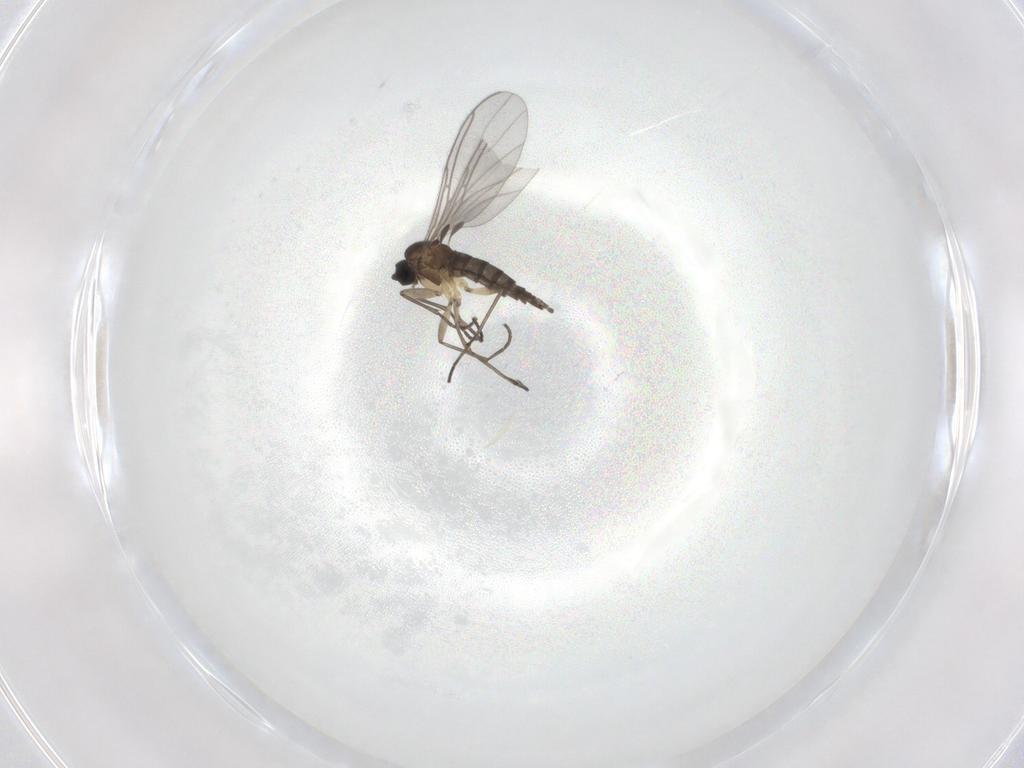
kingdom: Animalia
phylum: Arthropoda
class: Insecta
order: Diptera
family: Sciaridae
